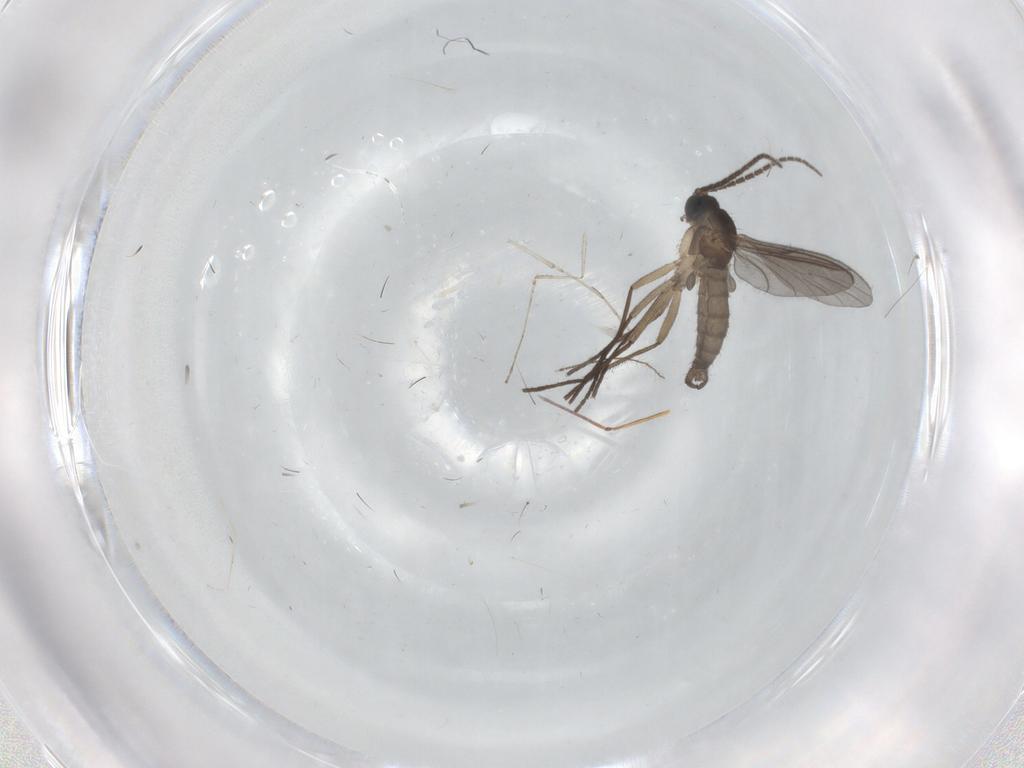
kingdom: Animalia
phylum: Arthropoda
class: Insecta
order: Diptera
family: Sciaridae
